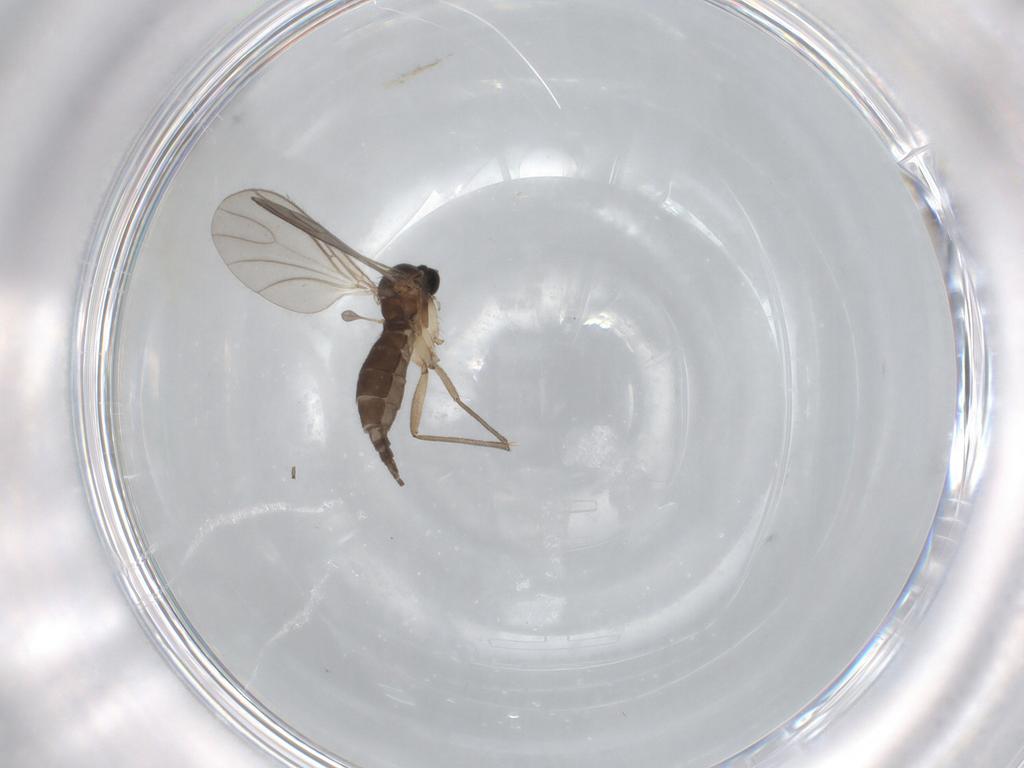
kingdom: Animalia
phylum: Arthropoda
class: Insecta
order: Diptera
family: Sciaridae
